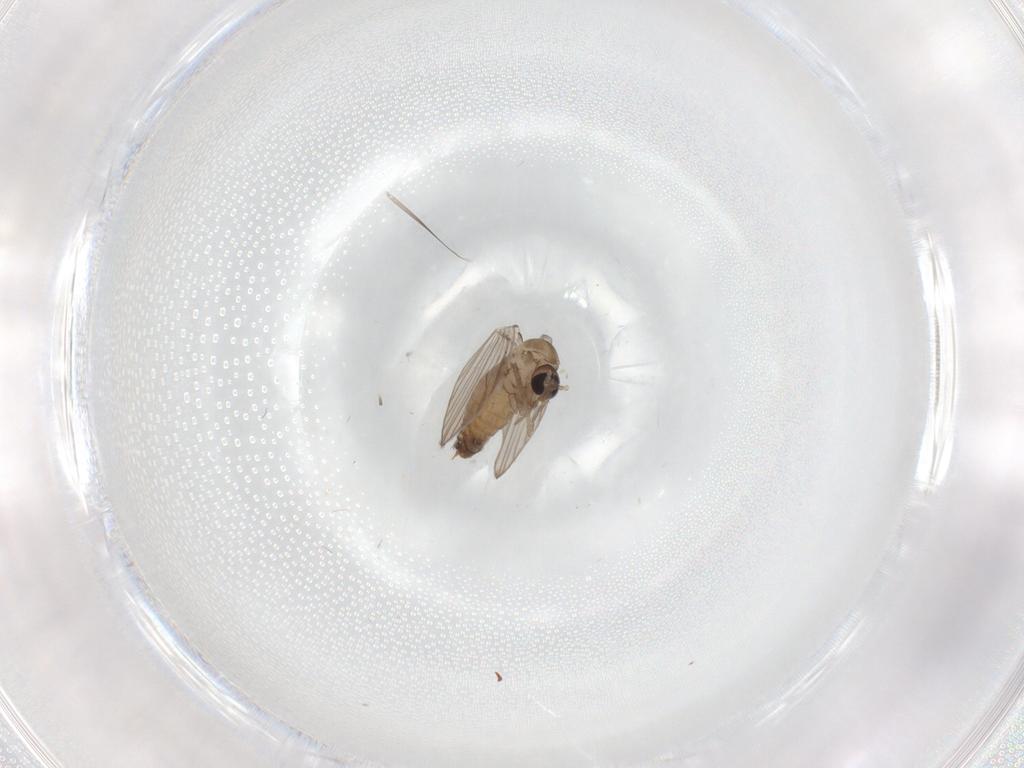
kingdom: Animalia
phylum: Arthropoda
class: Insecta
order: Diptera
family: Psychodidae
